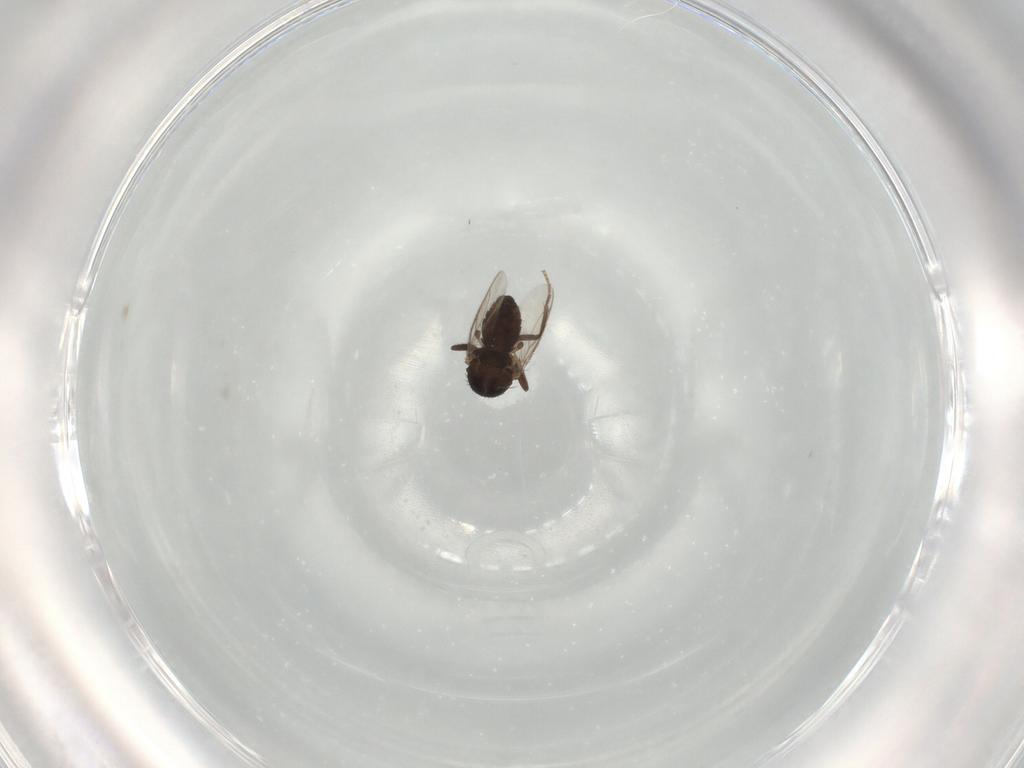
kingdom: Animalia
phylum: Arthropoda
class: Insecta
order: Diptera
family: Sphaeroceridae
